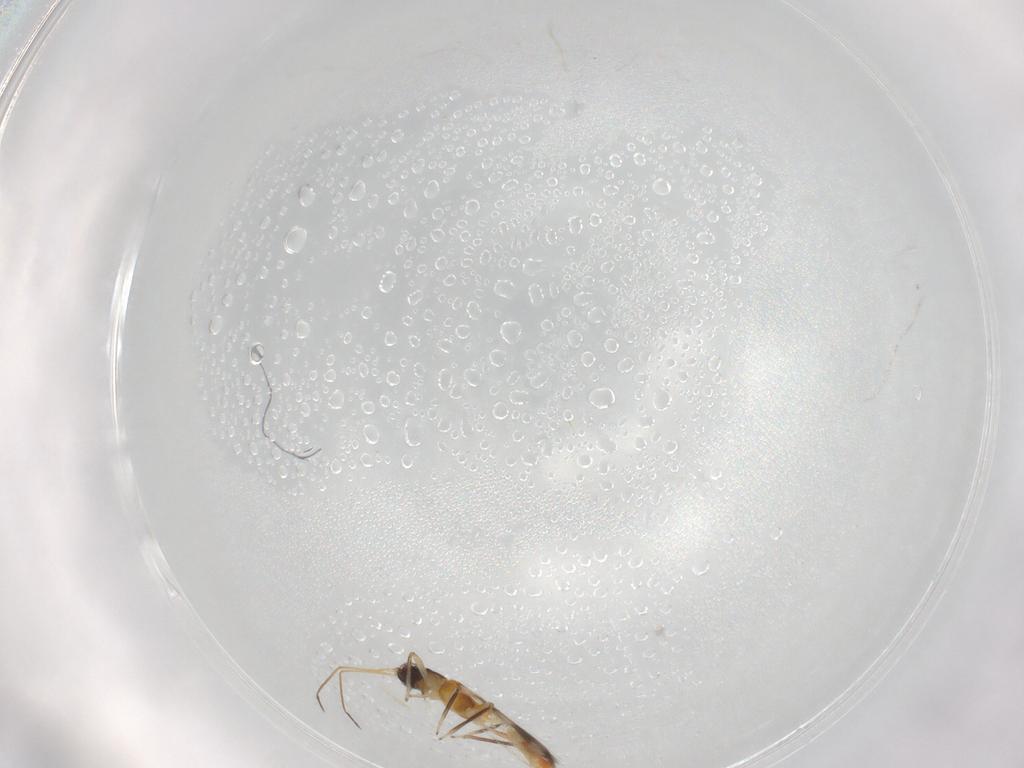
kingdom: Animalia
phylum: Arthropoda
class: Insecta
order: Thysanoptera
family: Aeolothripidae
